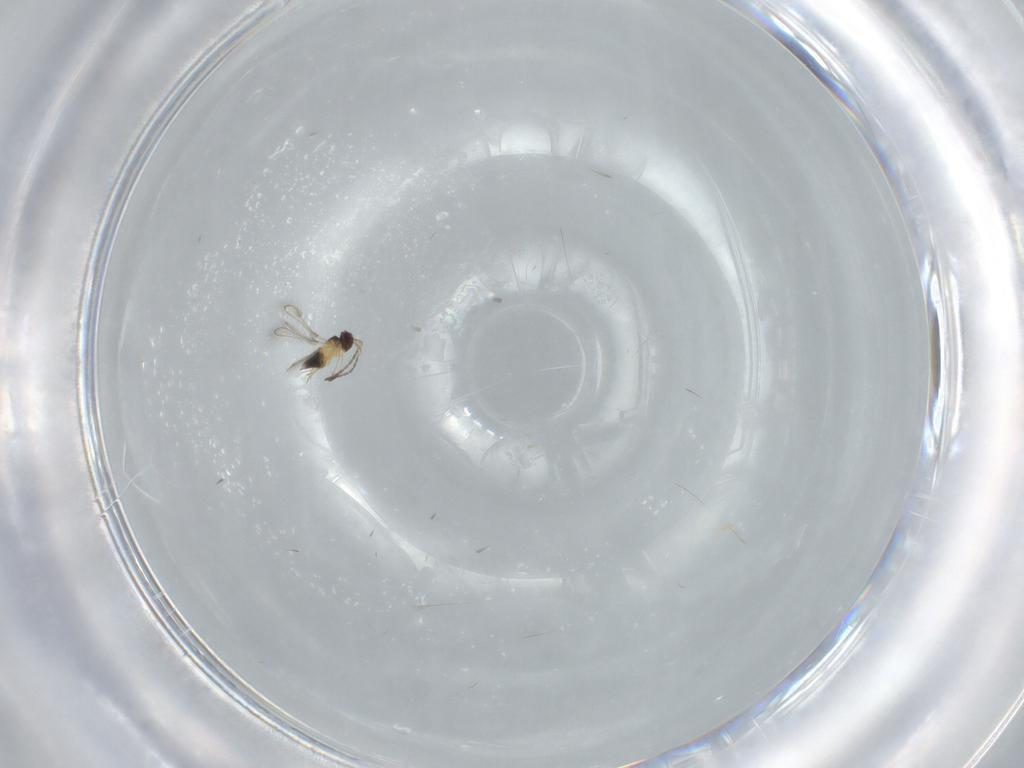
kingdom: Animalia
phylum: Arthropoda
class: Insecta
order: Hymenoptera
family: Mymaridae
